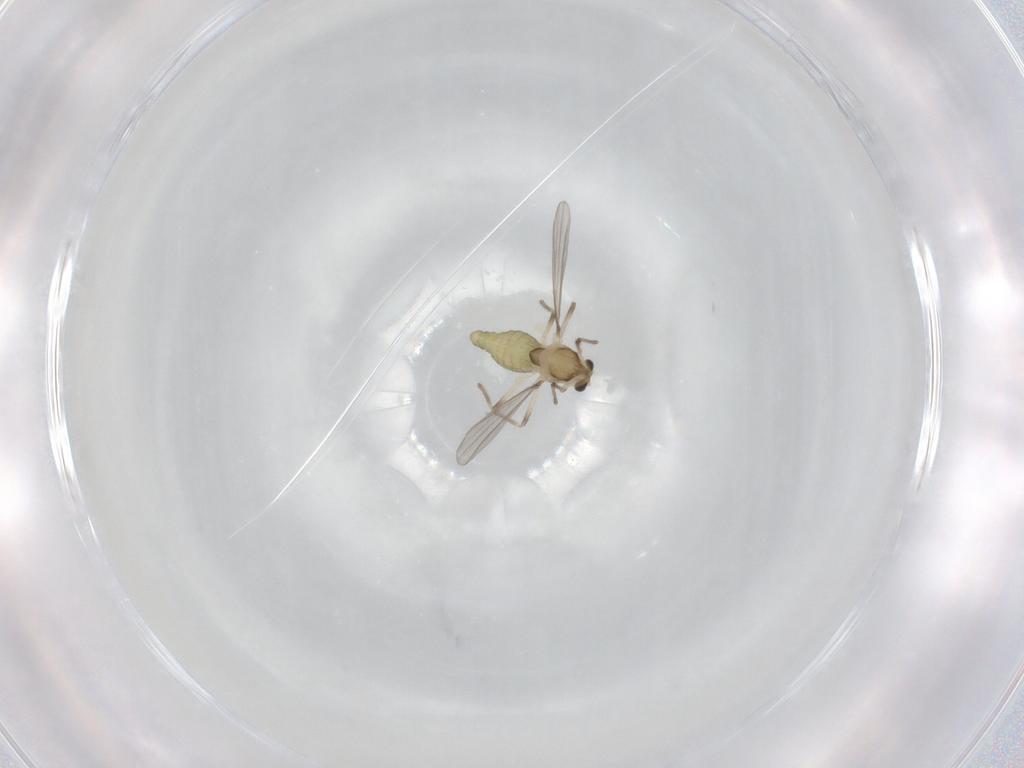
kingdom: Animalia
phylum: Arthropoda
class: Insecta
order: Diptera
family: Chironomidae
